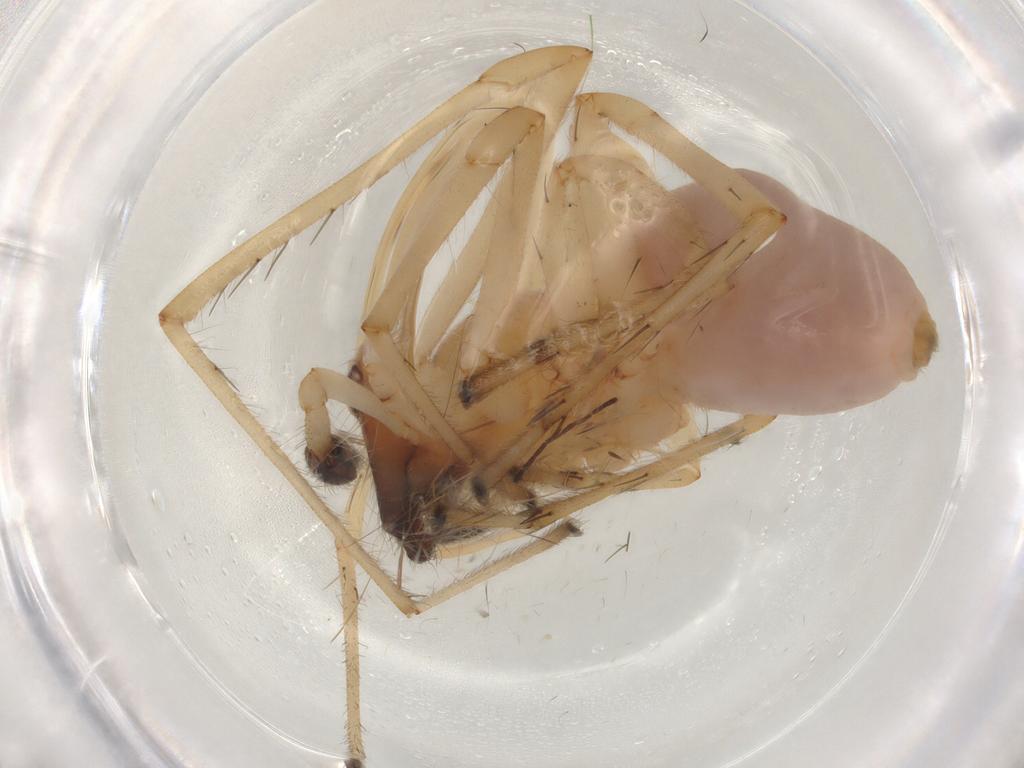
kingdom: Animalia
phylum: Arthropoda
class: Arachnida
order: Araneae
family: Cheiracanthiidae
